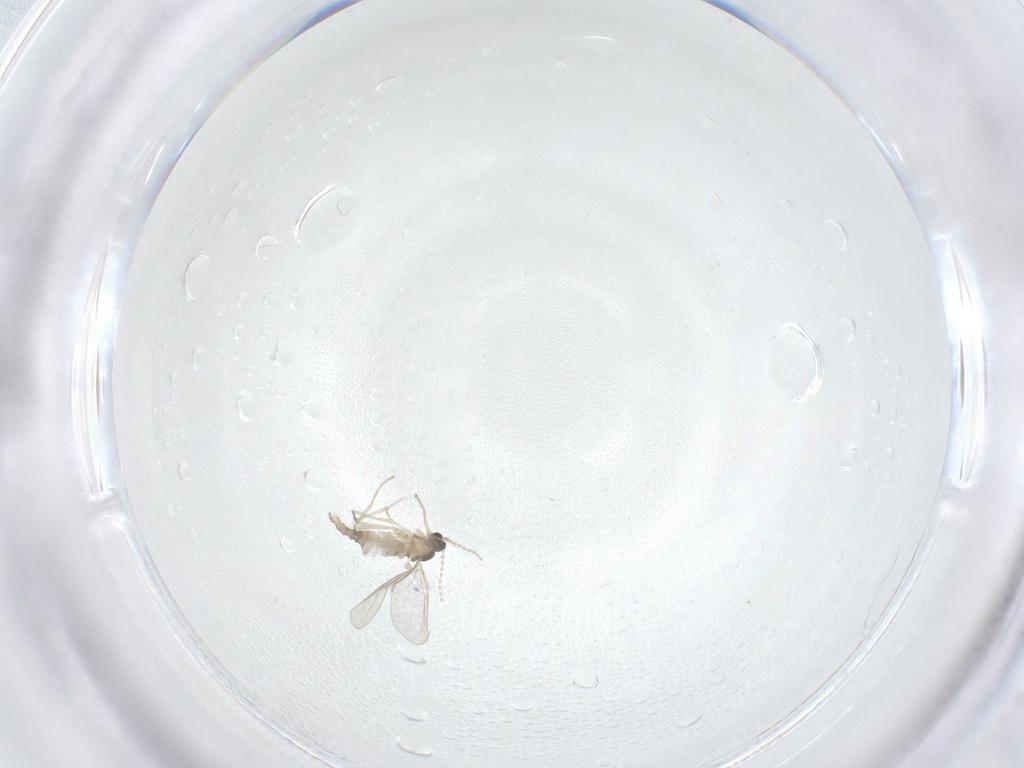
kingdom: Animalia
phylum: Arthropoda
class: Insecta
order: Diptera
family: Cecidomyiidae
